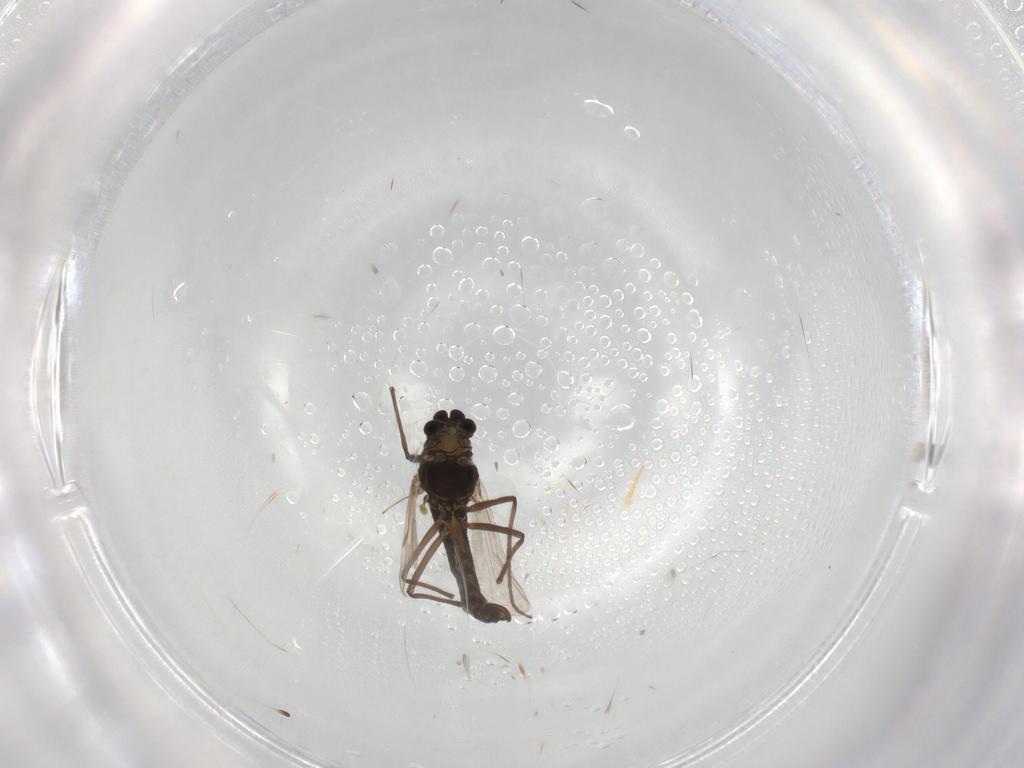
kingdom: Animalia
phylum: Arthropoda
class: Insecta
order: Diptera
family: Chironomidae
